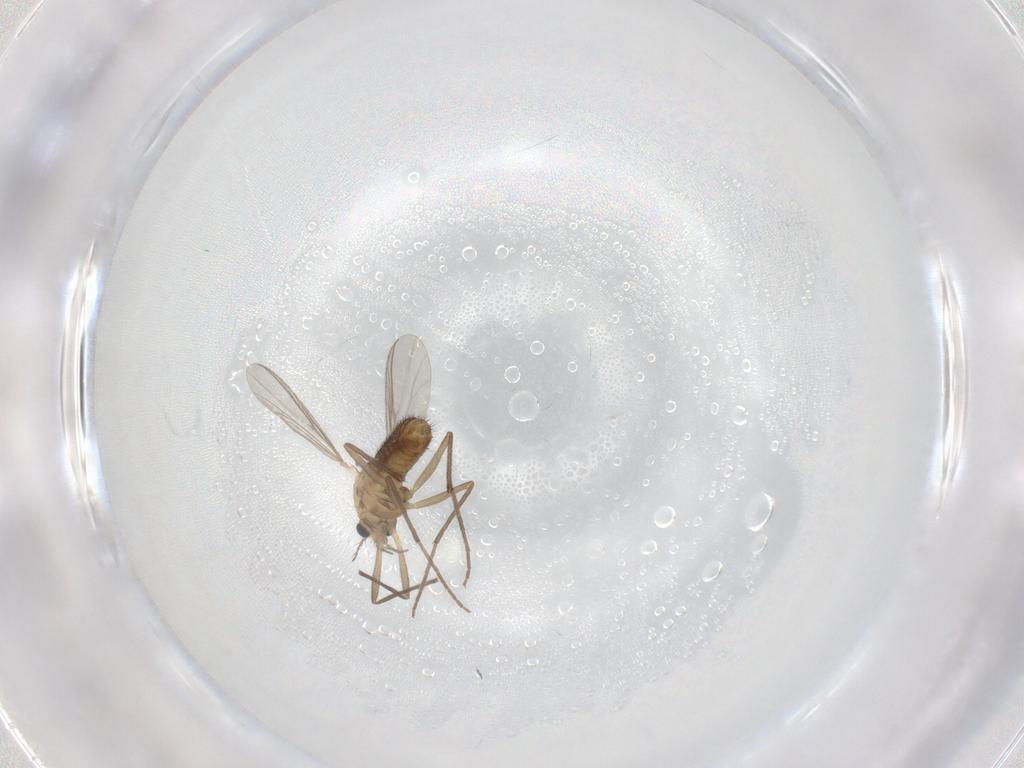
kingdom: Animalia
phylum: Arthropoda
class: Insecta
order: Diptera
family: Chironomidae
